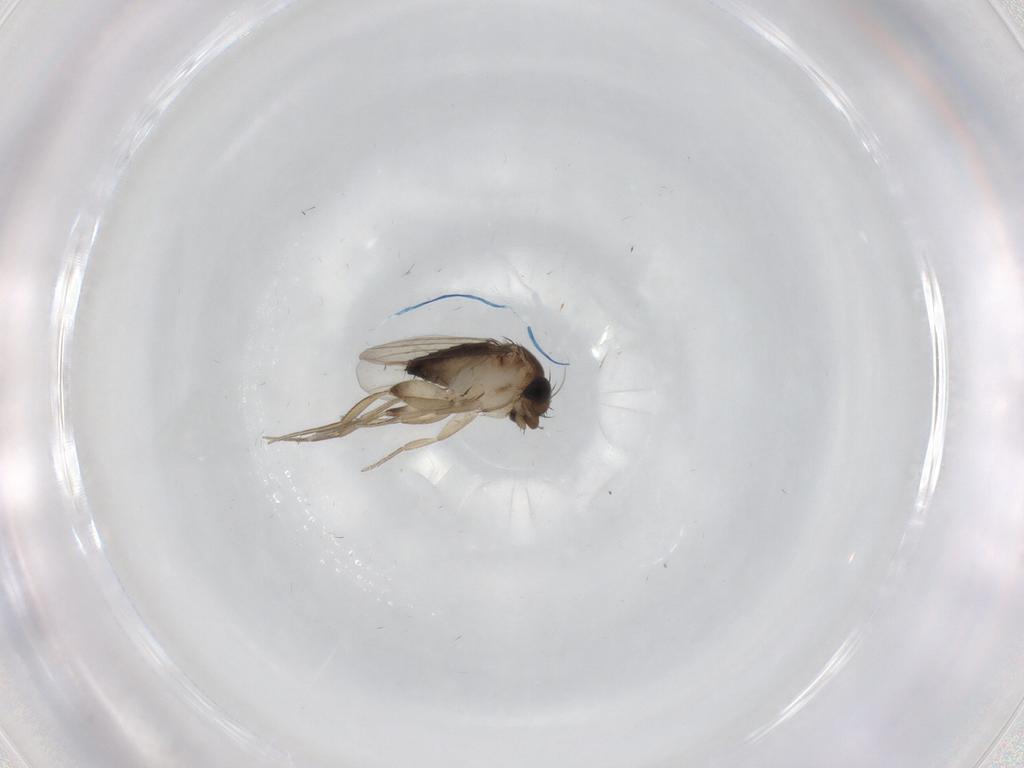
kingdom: Animalia
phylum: Arthropoda
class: Insecta
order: Diptera
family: Phoridae
